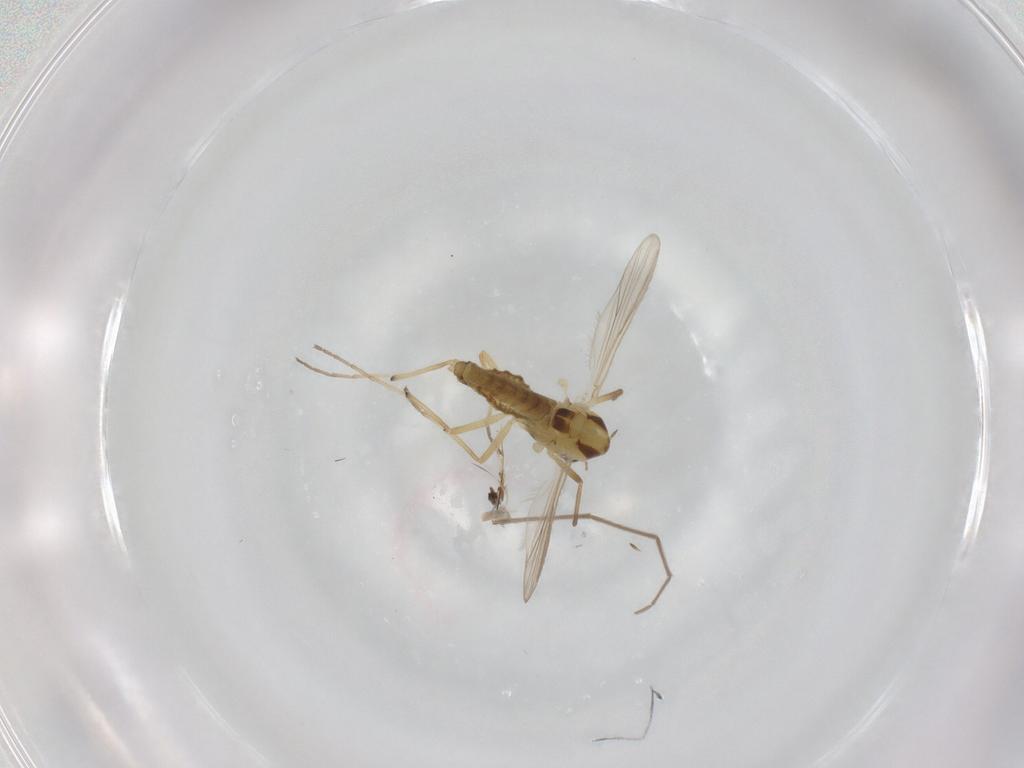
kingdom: Animalia
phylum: Arthropoda
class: Insecta
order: Diptera
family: Chironomidae
